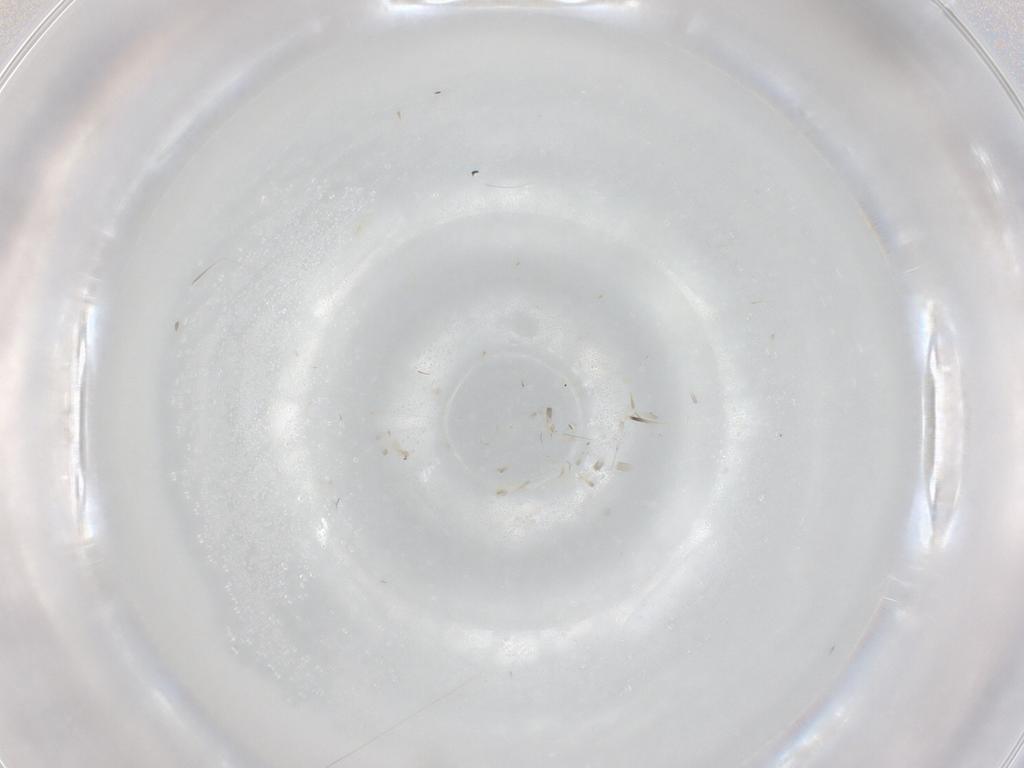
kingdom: Animalia
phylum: Arthropoda
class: Insecta
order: Diptera
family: Ceratopogonidae
